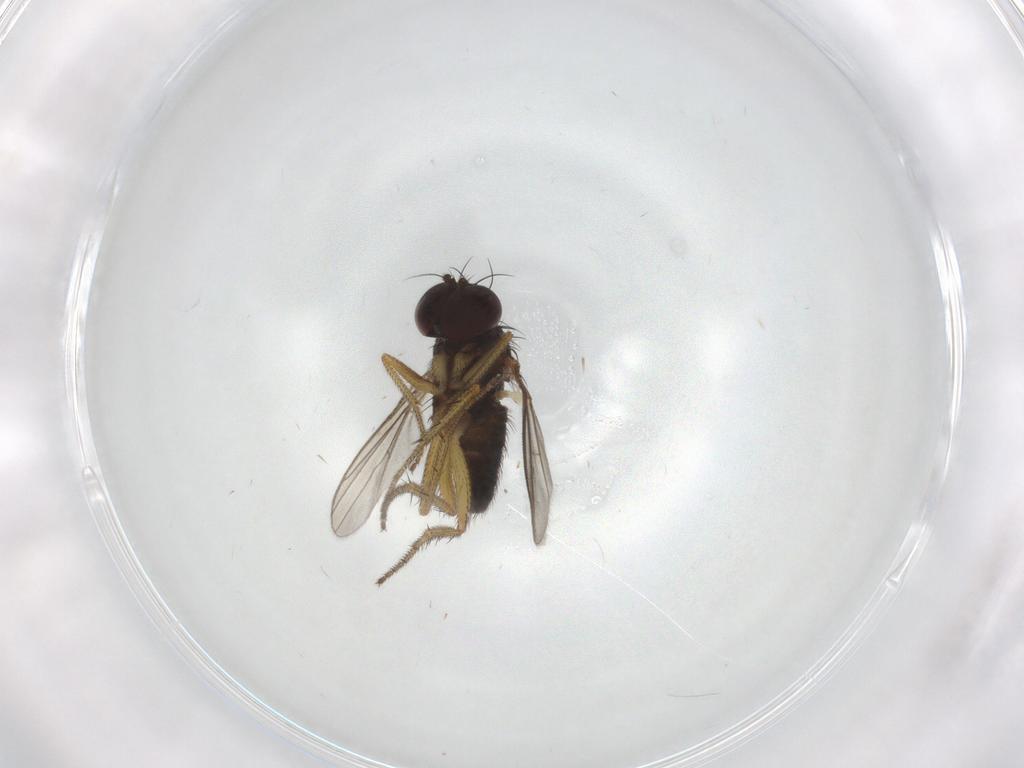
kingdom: Animalia
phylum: Arthropoda
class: Insecta
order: Diptera
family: Dolichopodidae
